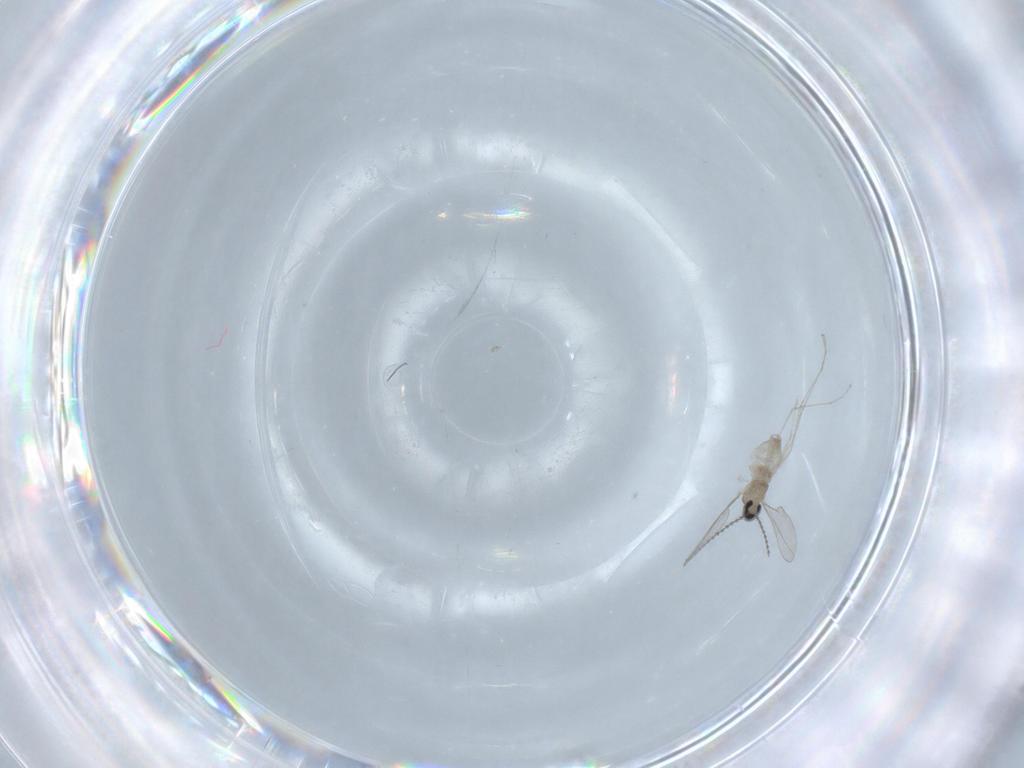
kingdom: Animalia
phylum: Arthropoda
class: Insecta
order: Diptera
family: Cecidomyiidae
